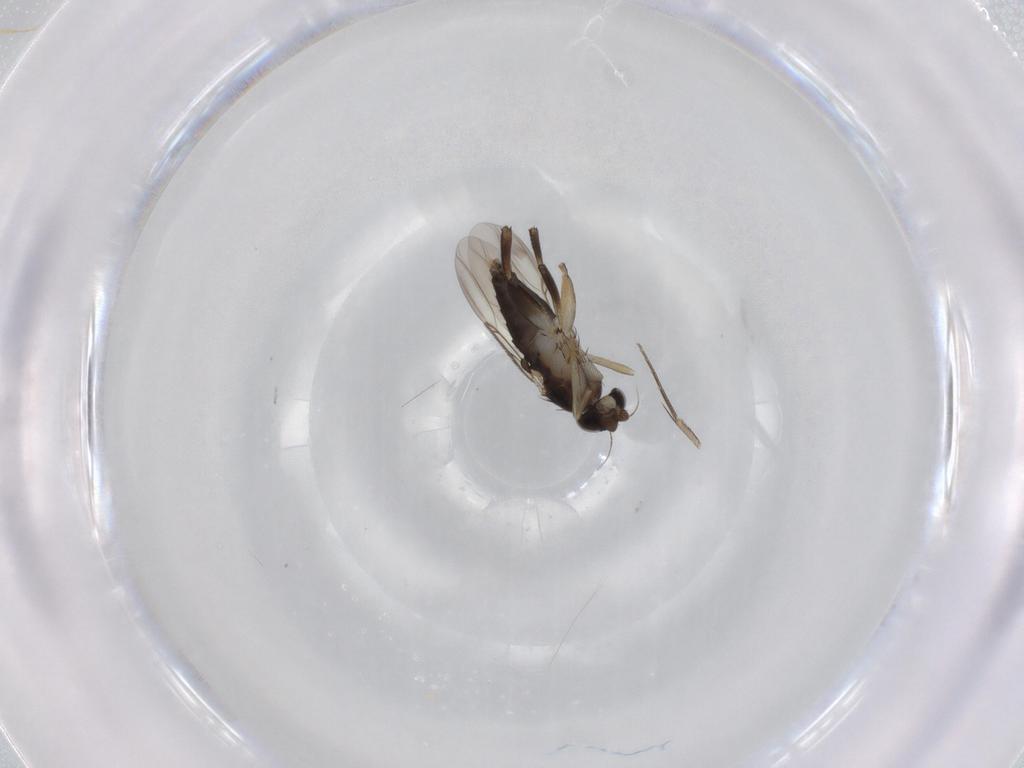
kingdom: Animalia
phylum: Arthropoda
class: Insecta
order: Diptera
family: Phoridae
